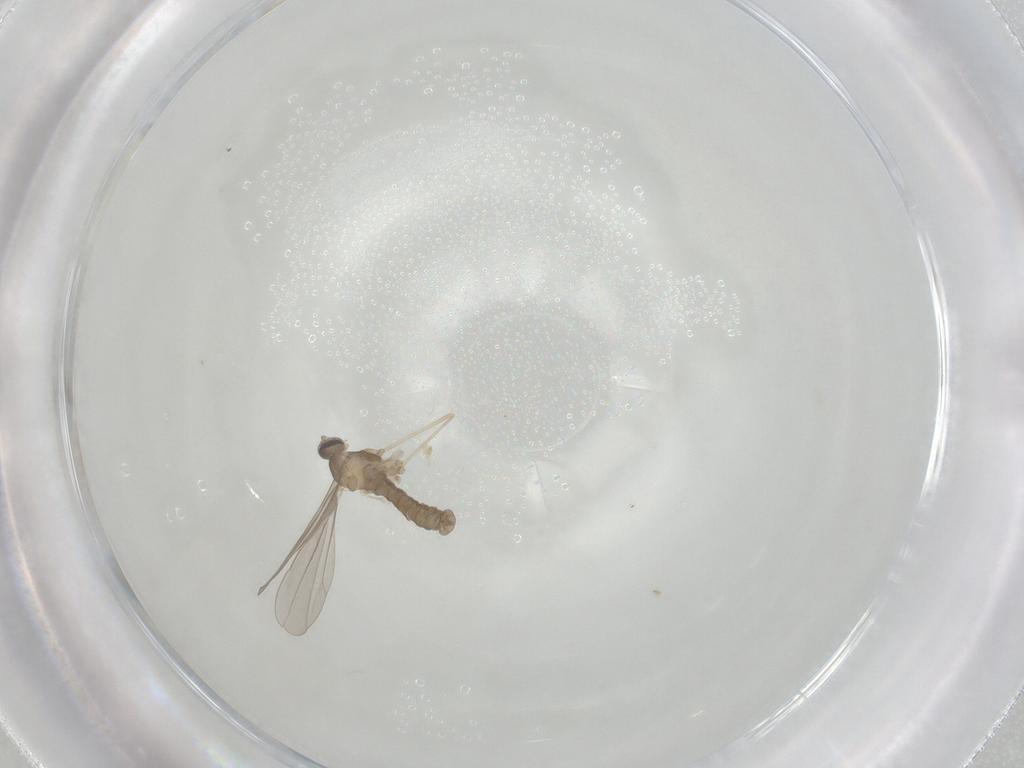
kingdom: Animalia
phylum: Arthropoda
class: Insecta
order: Diptera
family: Cecidomyiidae
